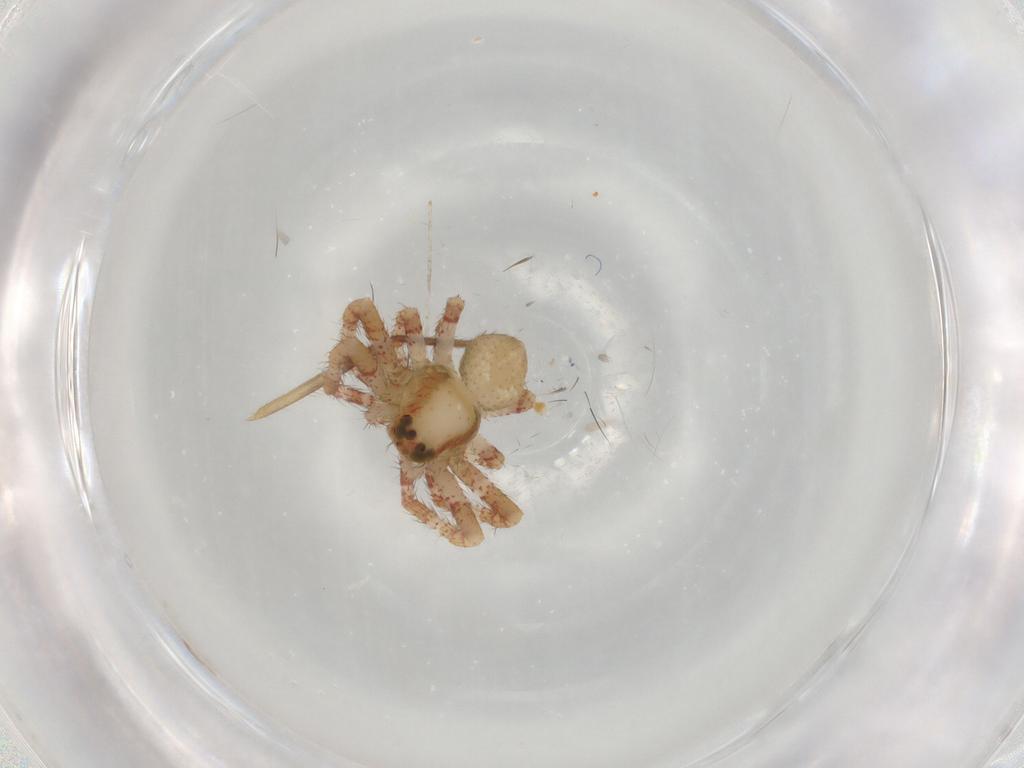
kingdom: Animalia
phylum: Arthropoda
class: Arachnida
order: Araneae
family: Thomisidae
